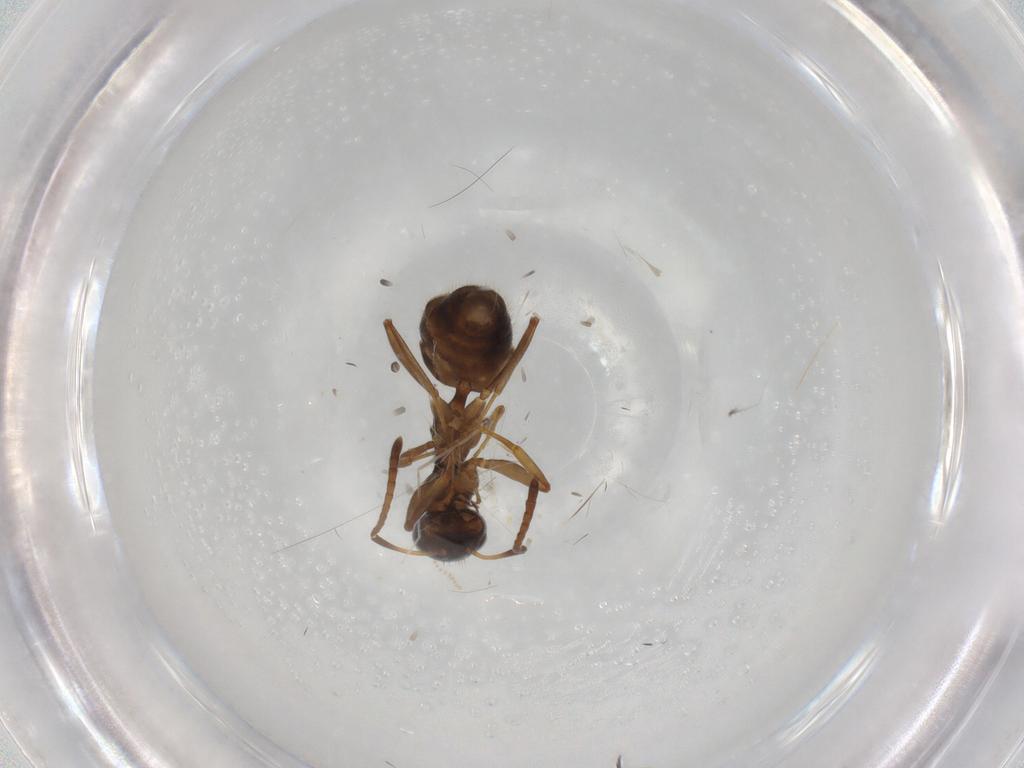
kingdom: Animalia
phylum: Arthropoda
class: Insecta
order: Hymenoptera
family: Formicidae
